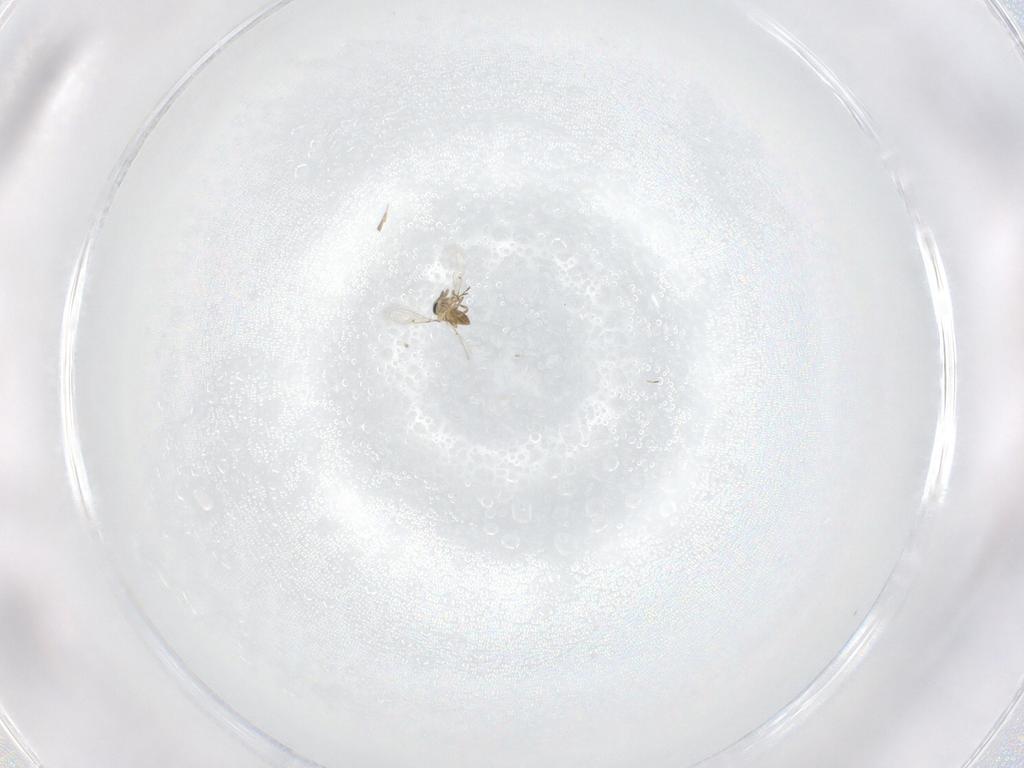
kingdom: Animalia
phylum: Arthropoda
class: Insecta
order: Hymenoptera
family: Trichogrammatidae
